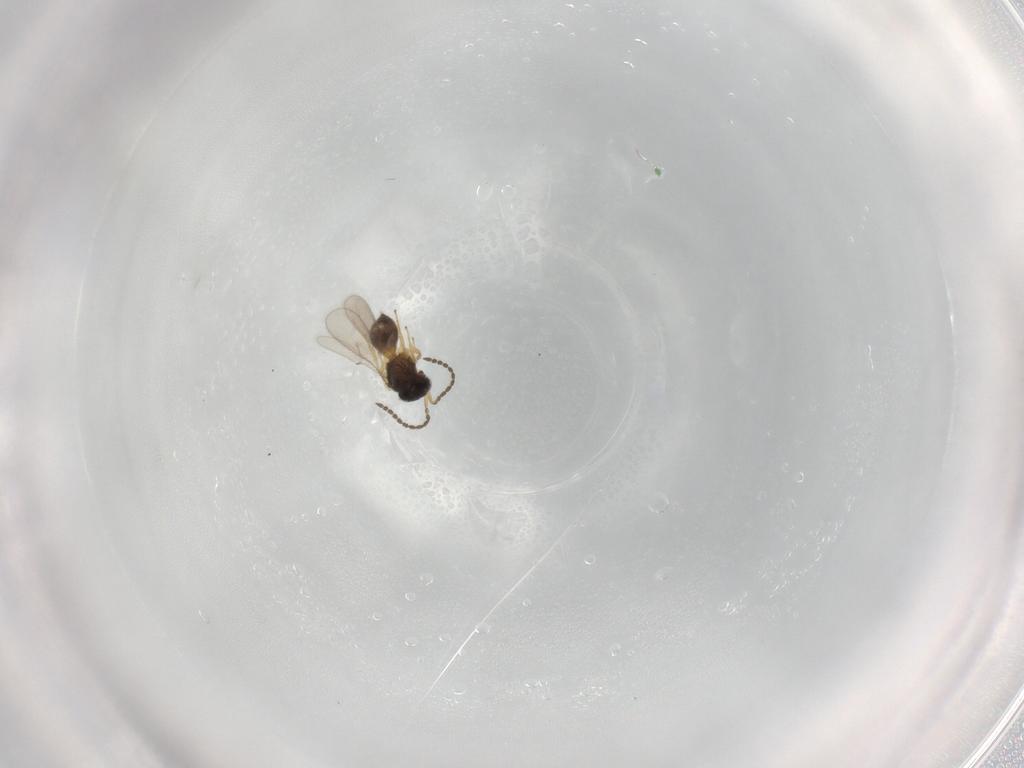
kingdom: Animalia
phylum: Arthropoda
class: Insecta
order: Hymenoptera
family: Scelionidae
